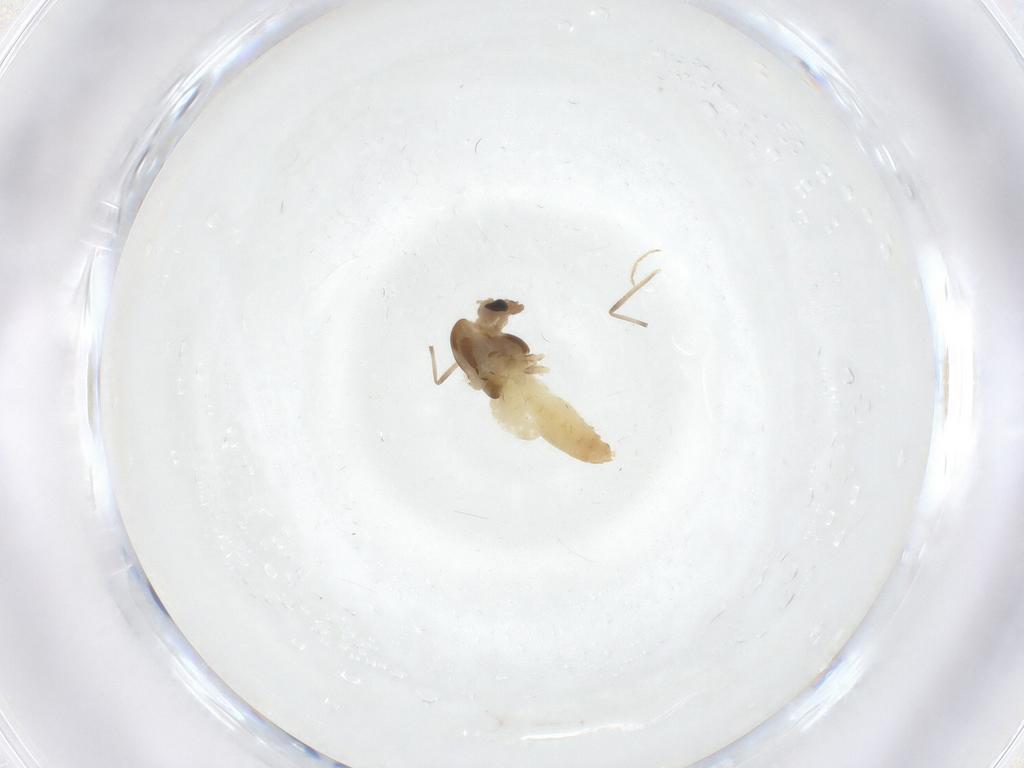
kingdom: Animalia
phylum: Arthropoda
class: Insecta
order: Diptera
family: Chironomidae
